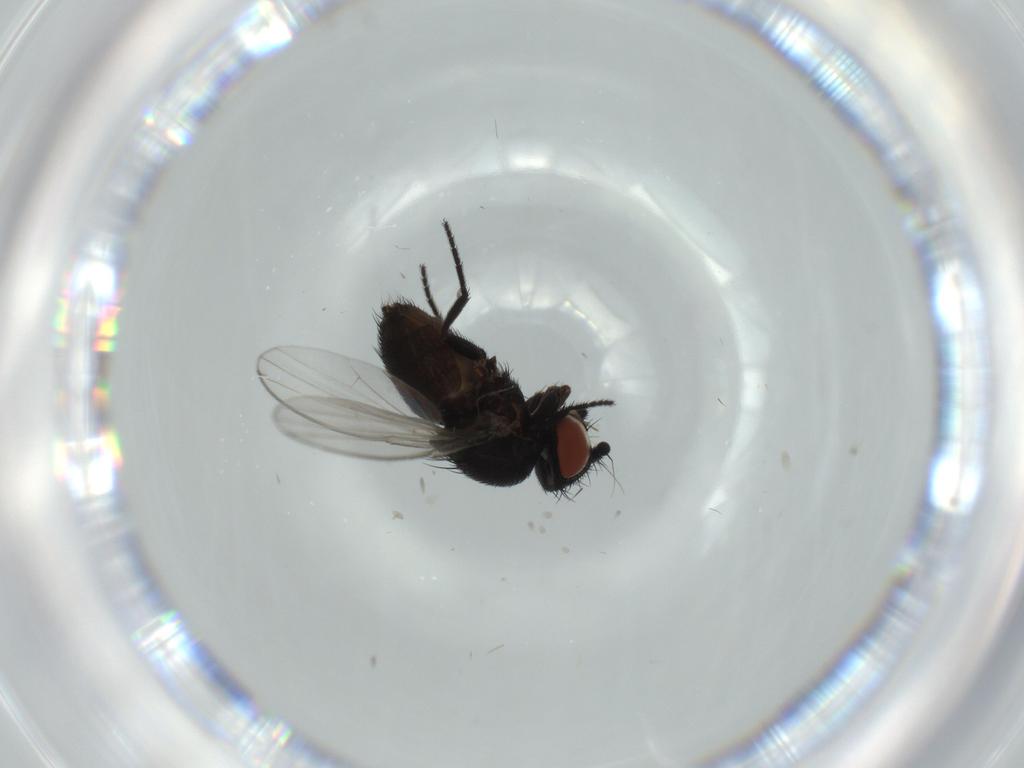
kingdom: Animalia
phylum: Arthropoda
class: Insecta
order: Diptera
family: Milichiidae
